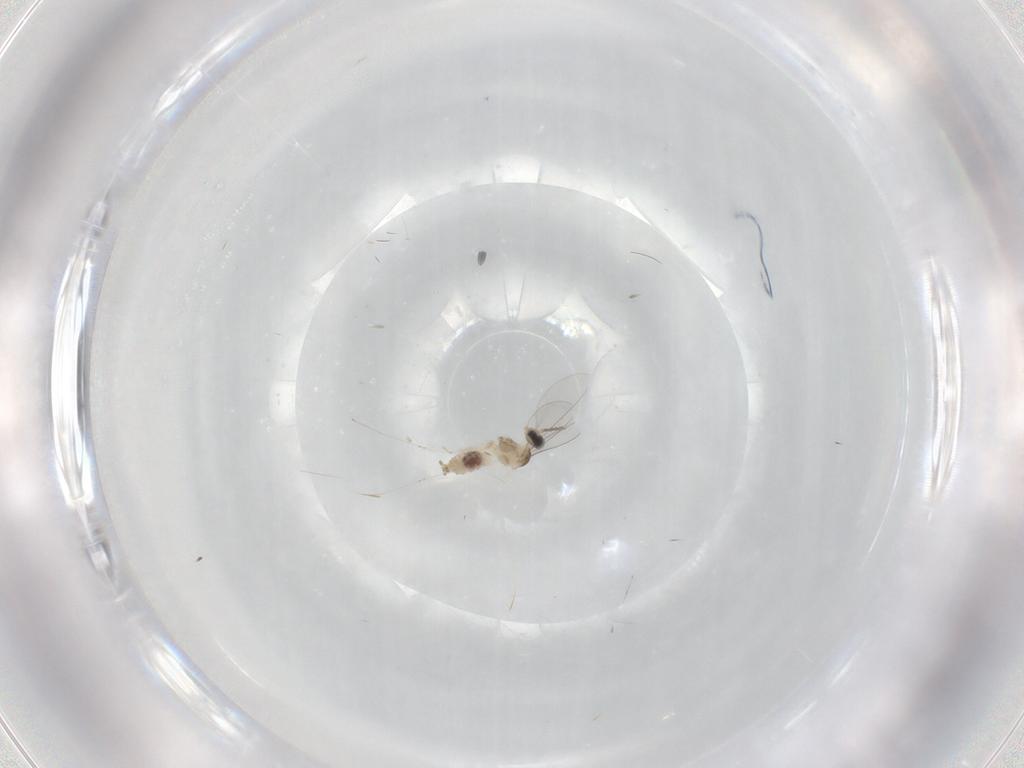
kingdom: Animalia
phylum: Arthropoda
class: Insecta
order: Diptera
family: Cecidomyiidae
